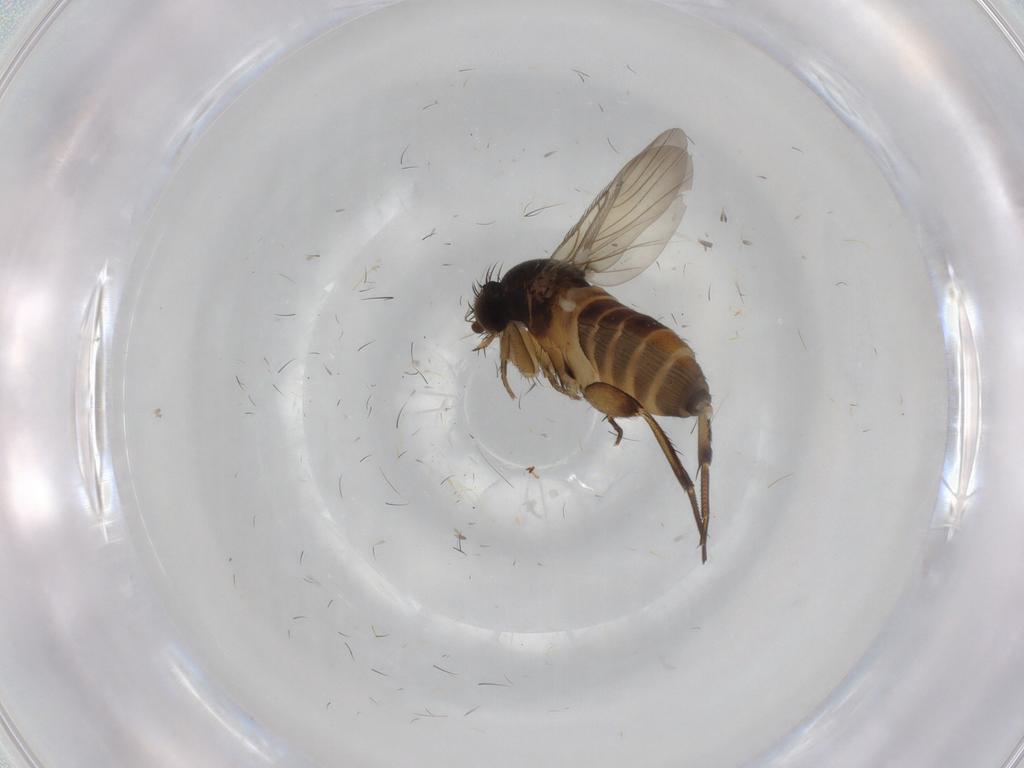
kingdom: Animalia
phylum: Arthropoda
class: Insecta
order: Diptera
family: Phoridae
